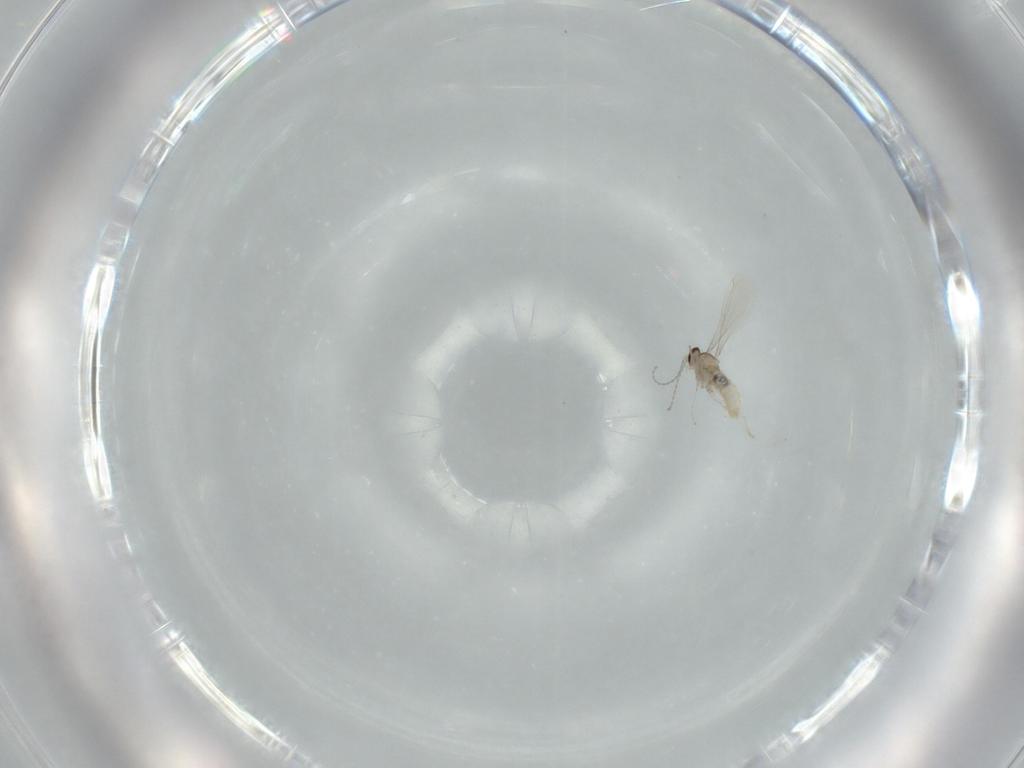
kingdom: Animalia
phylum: Arthropoda
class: Insecta
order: Diptera
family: Cecidomyiidae
